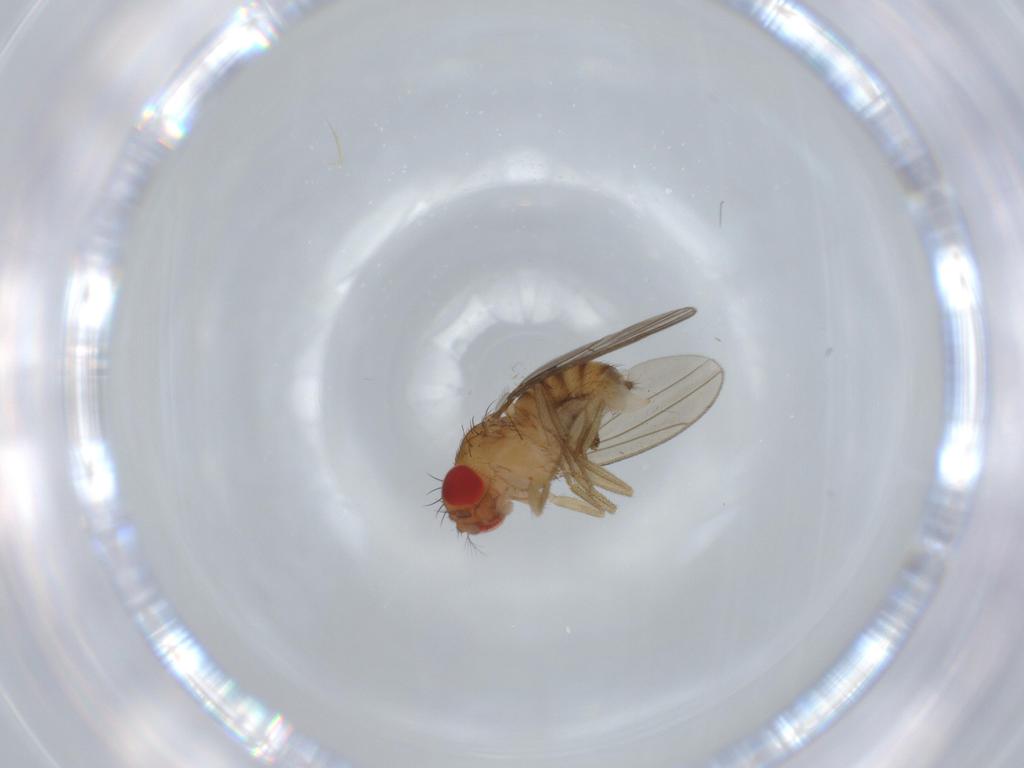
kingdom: Animalia
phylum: Arthropoda
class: Insecta
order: Diptera
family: Drosophilidae
